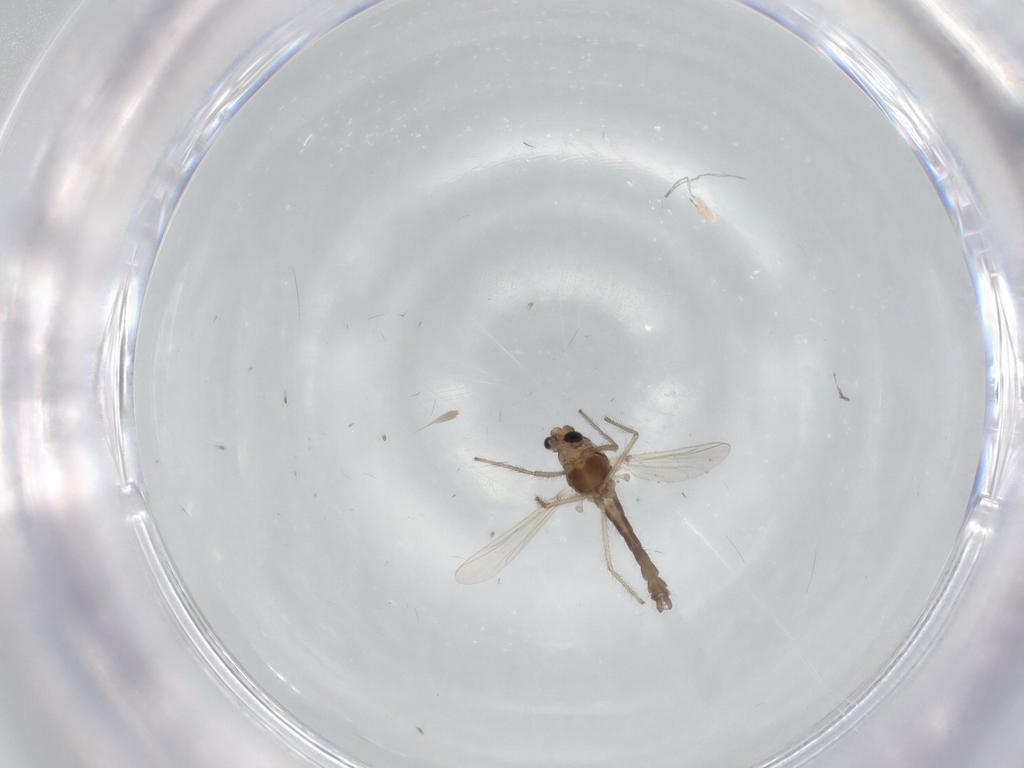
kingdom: Animalia
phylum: Arthropoda
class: Insecta
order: Diptera
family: Chironomidae
